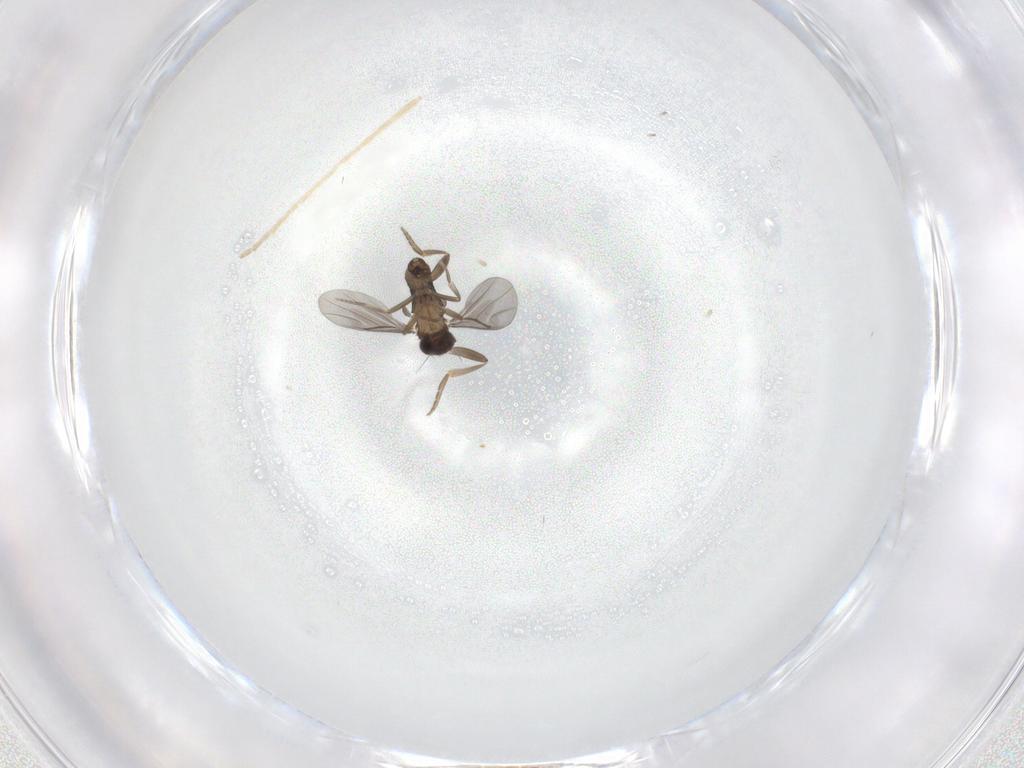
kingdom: Animalia
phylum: Arthropoda
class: Insecta
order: Diptera
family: Chironomidae
